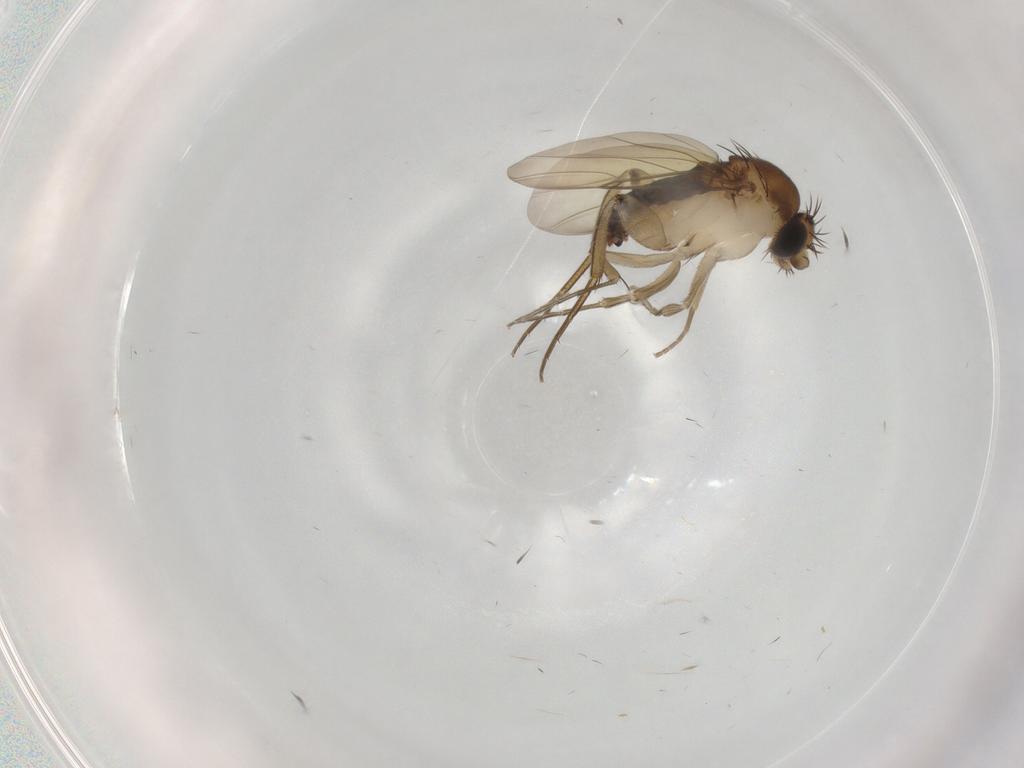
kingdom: Animalia
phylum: Arthropoda
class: Insecta
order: Diptera
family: Phoridae
